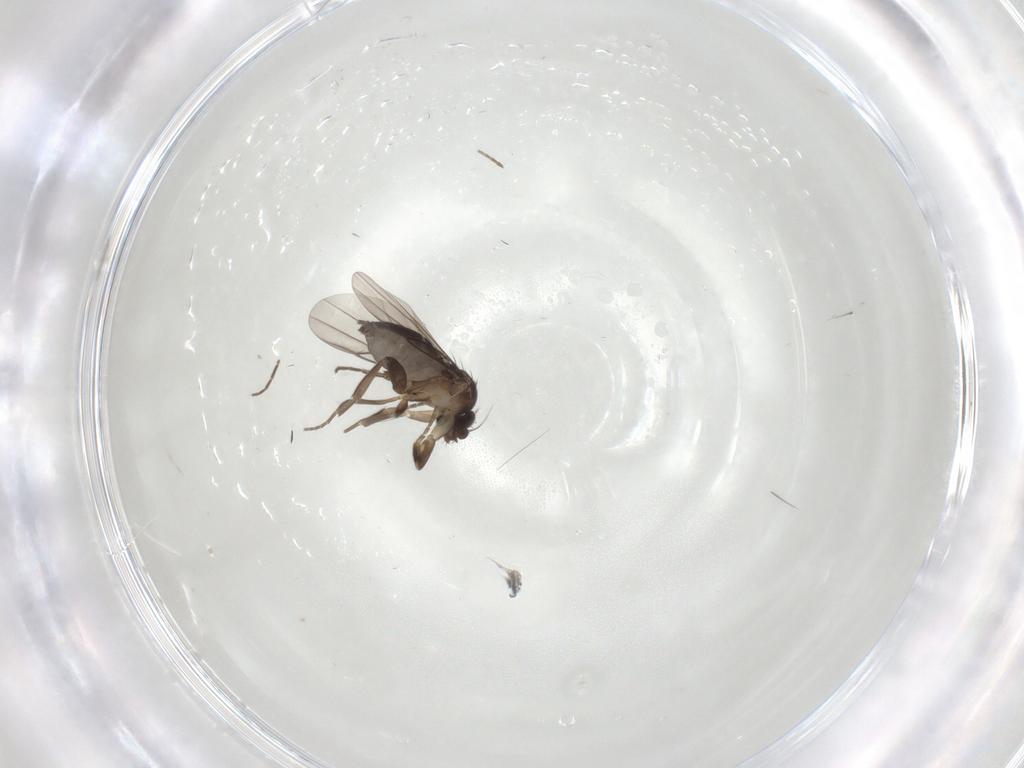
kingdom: Animalia
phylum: Arthropoda
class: Insecta
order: Diptera
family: Cecidomyiidae
